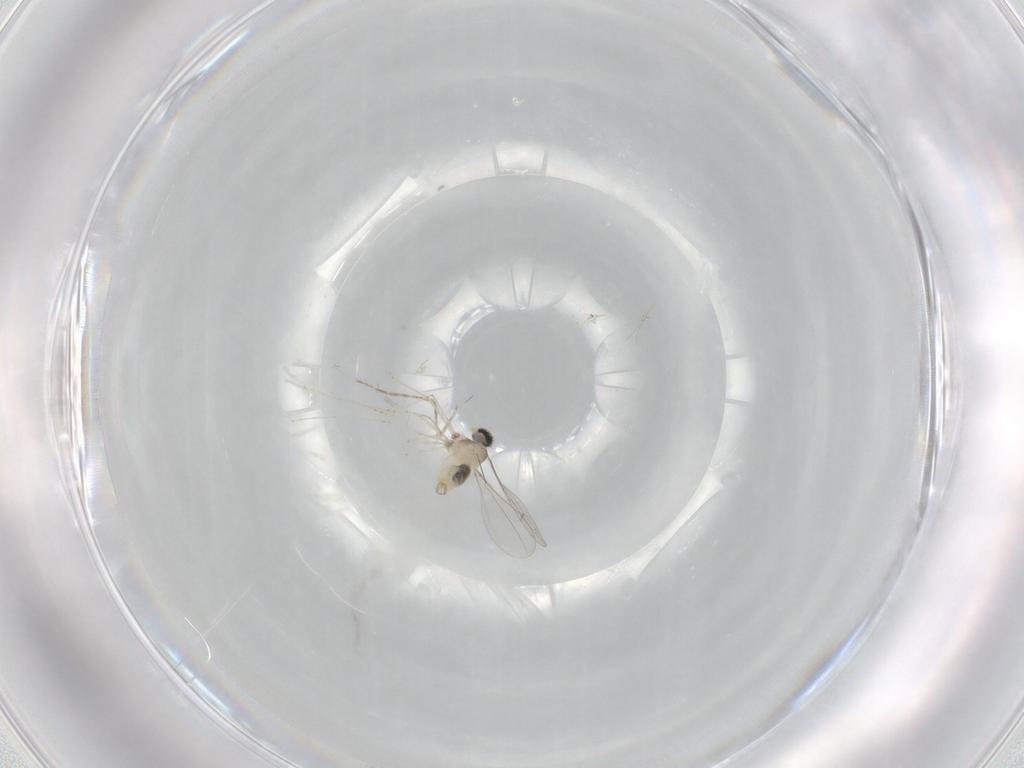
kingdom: Animalia
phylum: Arthropoda
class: Insecta
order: Diptera
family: Cecidomyiidae
